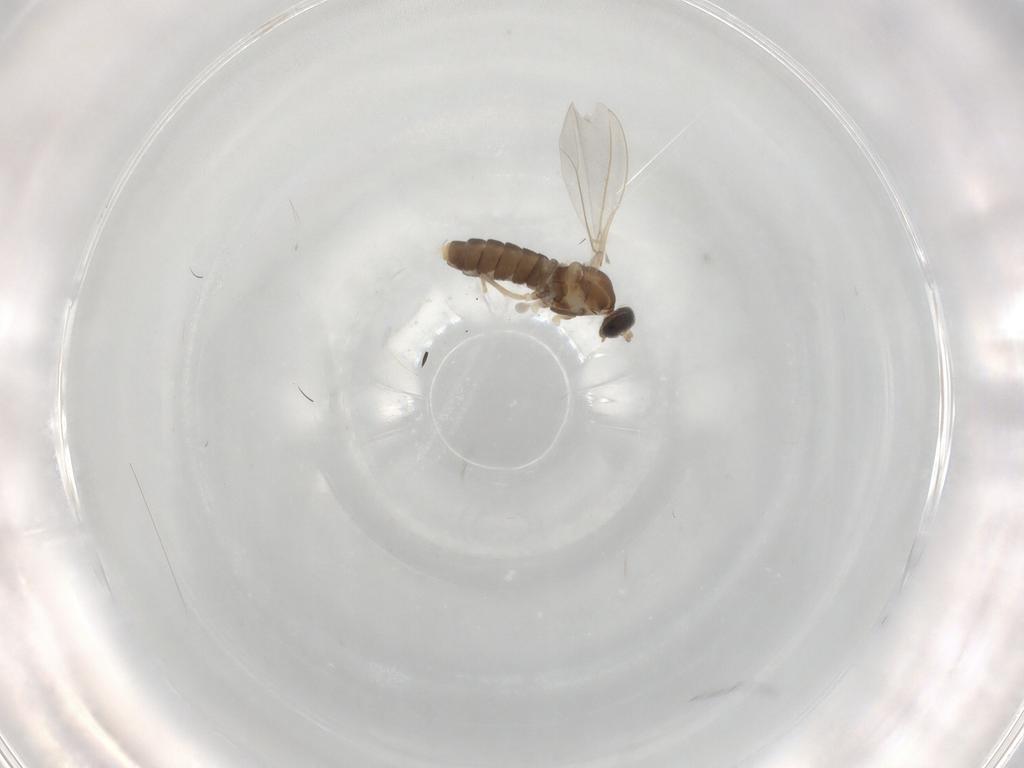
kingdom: Animalia
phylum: Arthropoda
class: Insecta
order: Diptera
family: Cecidomyiidae
